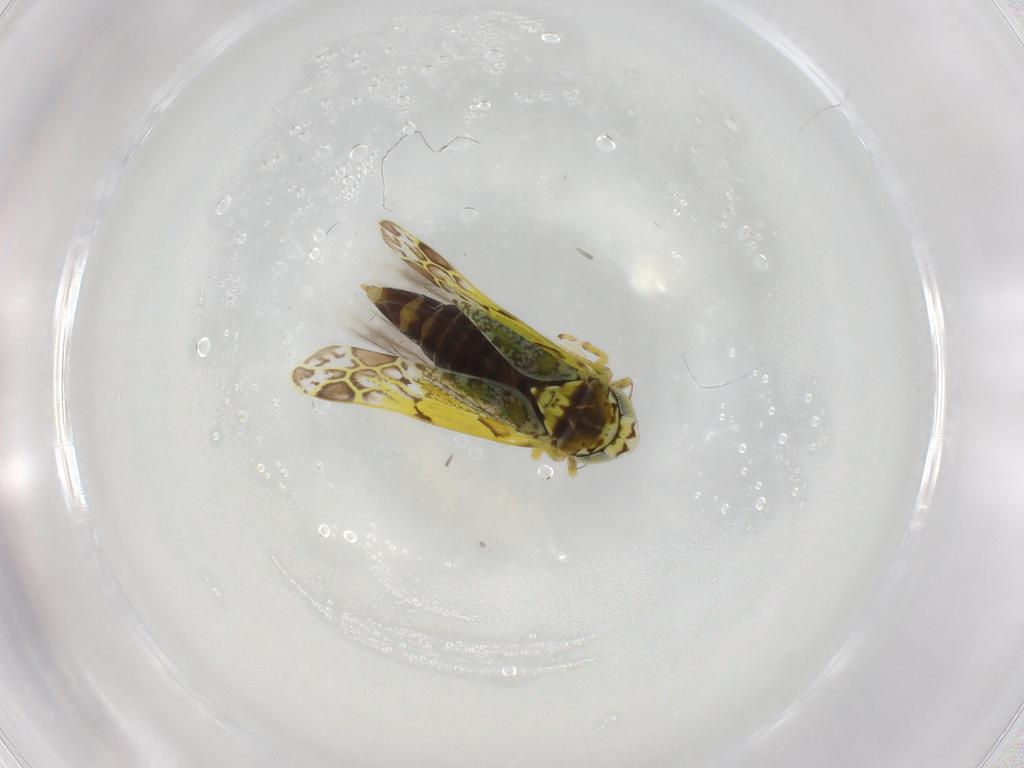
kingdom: Animalia
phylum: Arthropoda
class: Insecta
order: Hemiptera
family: Cicadellidae
